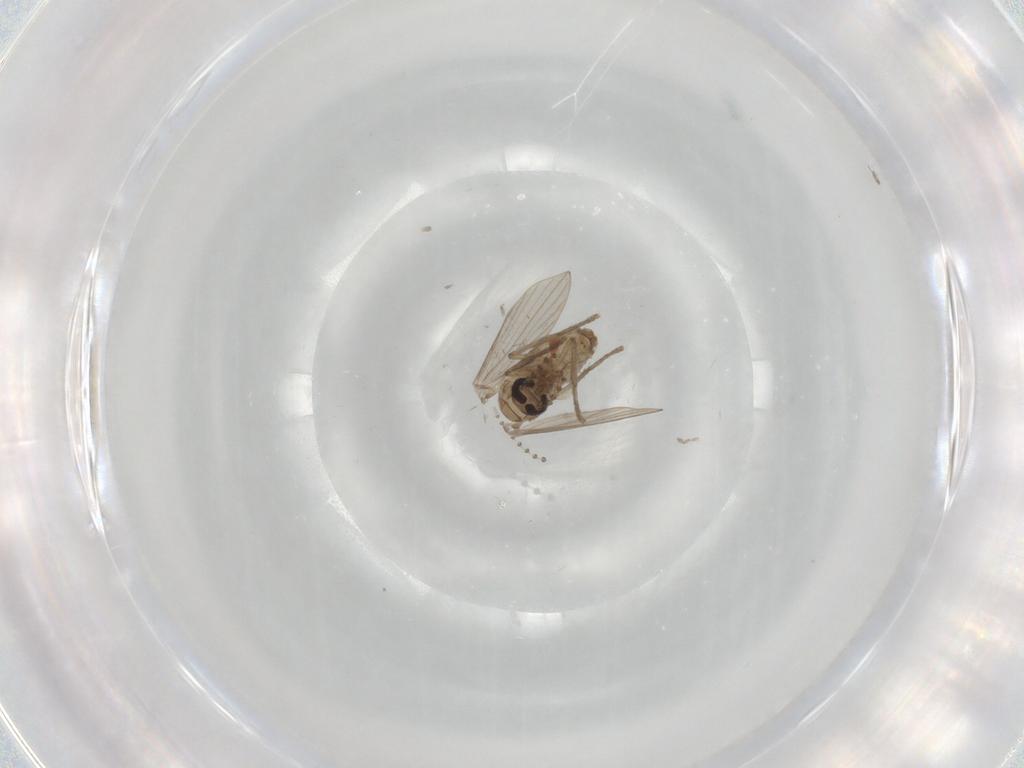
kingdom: Animalia
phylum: Arthropoda
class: Insecta
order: Diptera
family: Psychodidae
